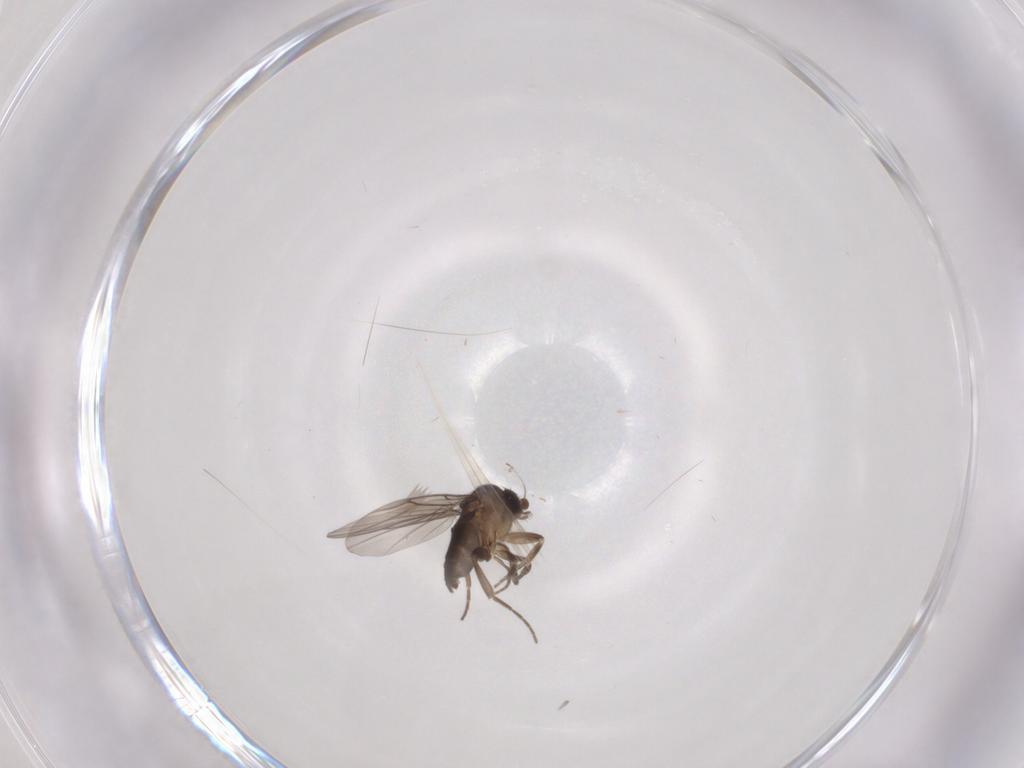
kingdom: Animalia
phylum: Arthropoda
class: Insecta
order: Diptera
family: Phoridae
